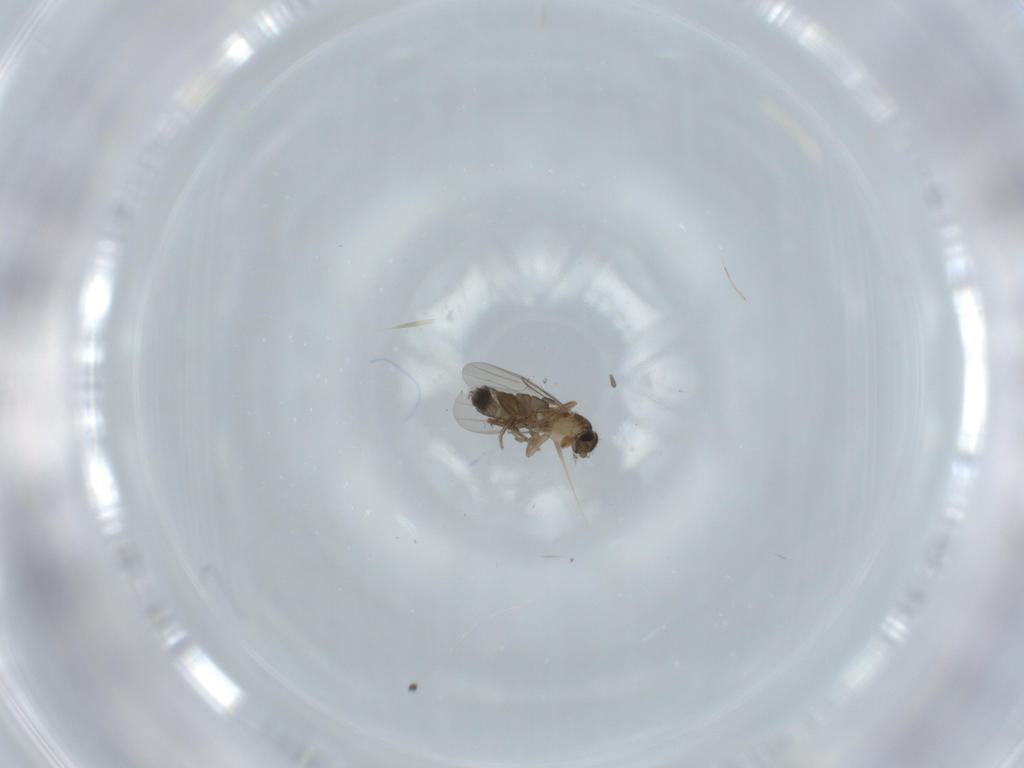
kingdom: Animalia
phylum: Arthropoda
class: Insecta
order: Diptera
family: Phoridae
